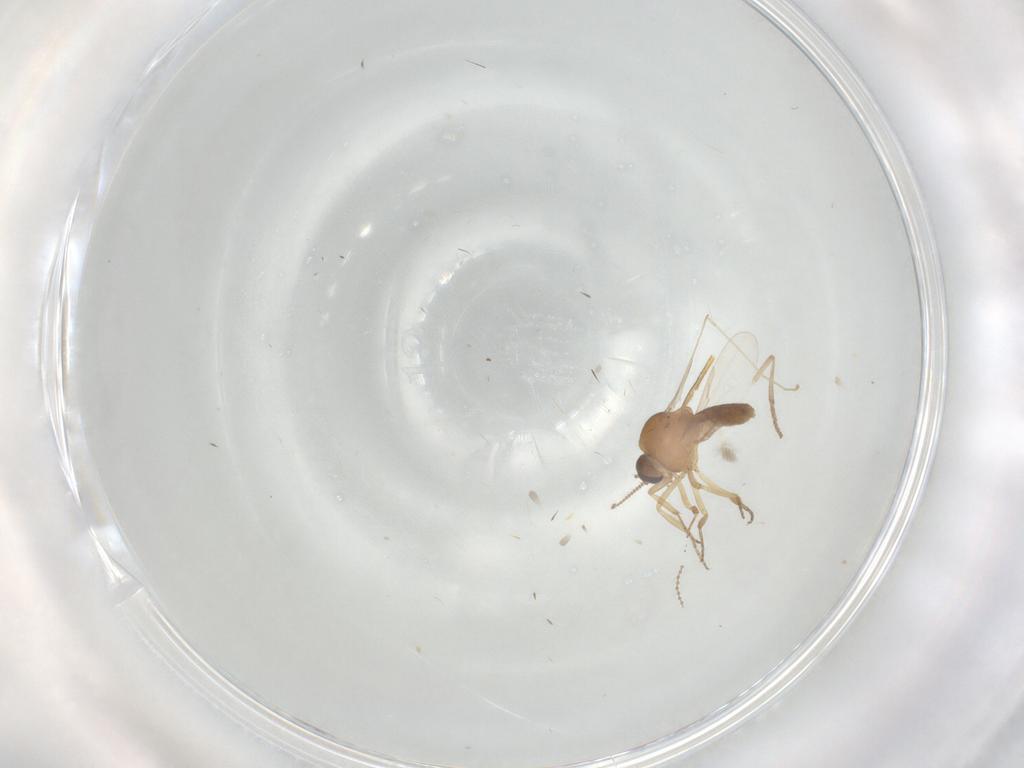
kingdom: Animalia
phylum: Arthropoda
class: Insecta
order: Diptera
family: Ceratopogonidae
